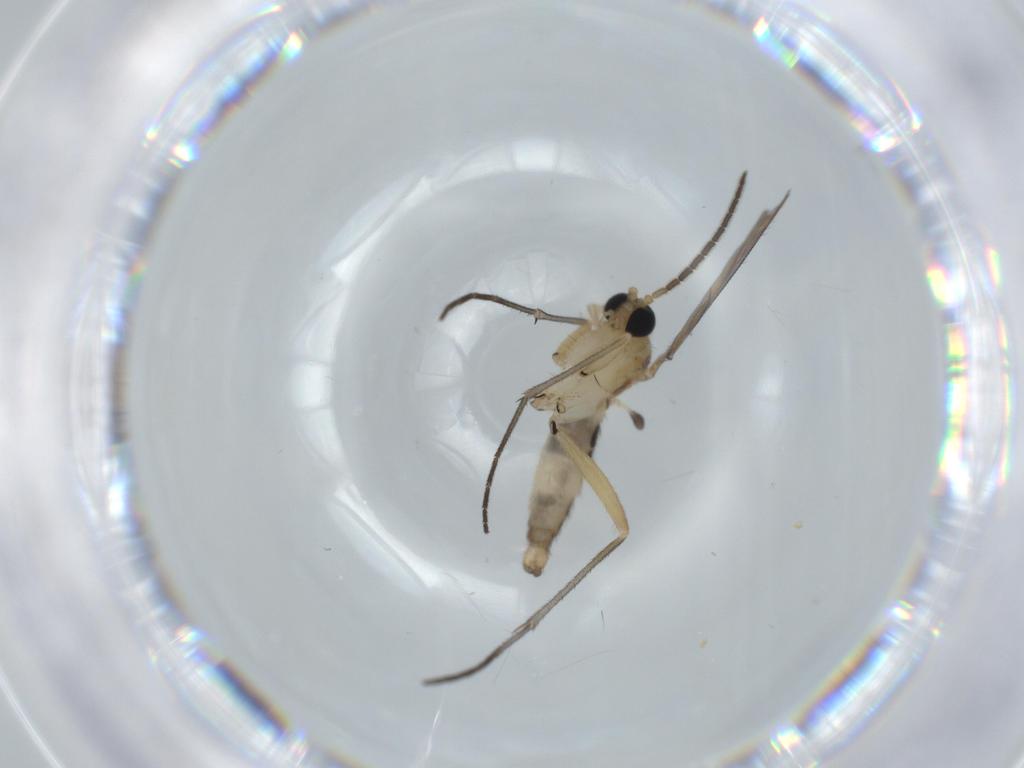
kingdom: Animalia
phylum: Arthropoda
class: Insecta
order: Diptera
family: Sciaridae
